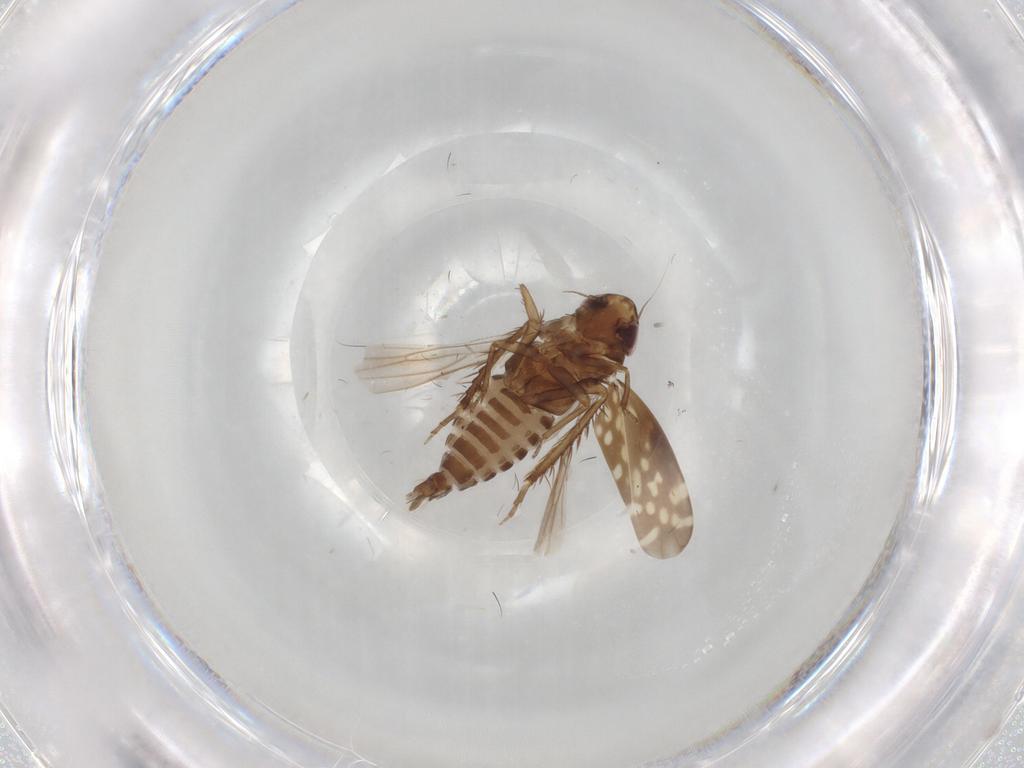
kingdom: Animalia
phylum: Arthropoda
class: Insecta
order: Hemiptera
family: Cicadellidae
